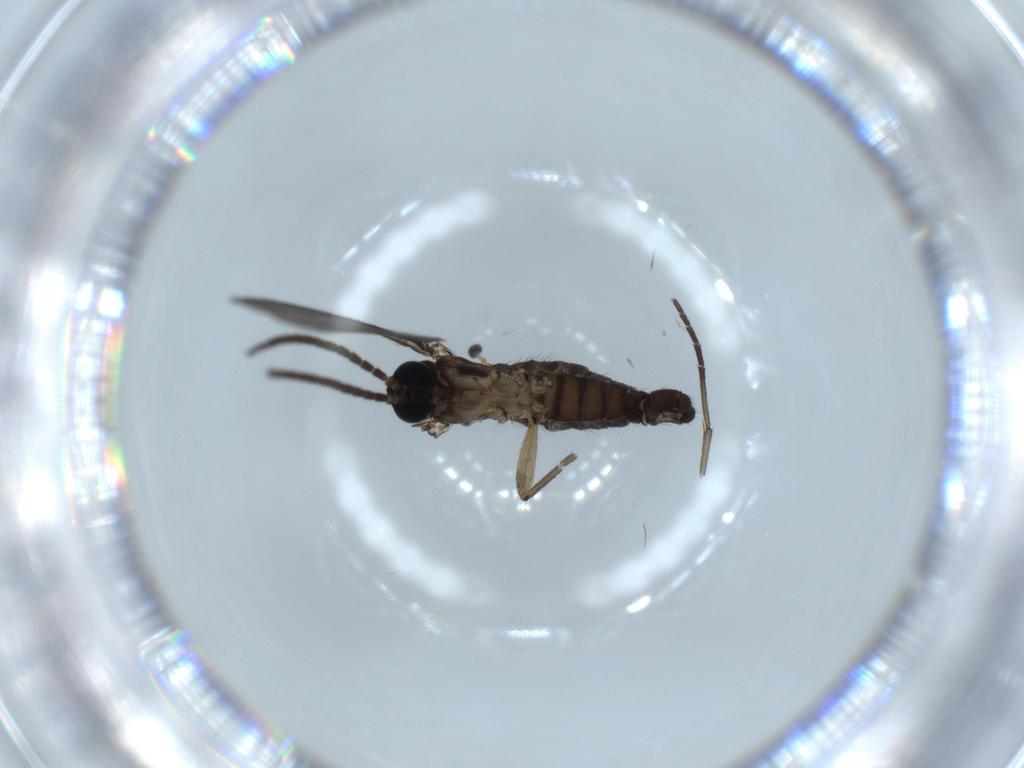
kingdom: Animalia
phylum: Arthropoda
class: Insecta
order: Diptera
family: Sciaridae
